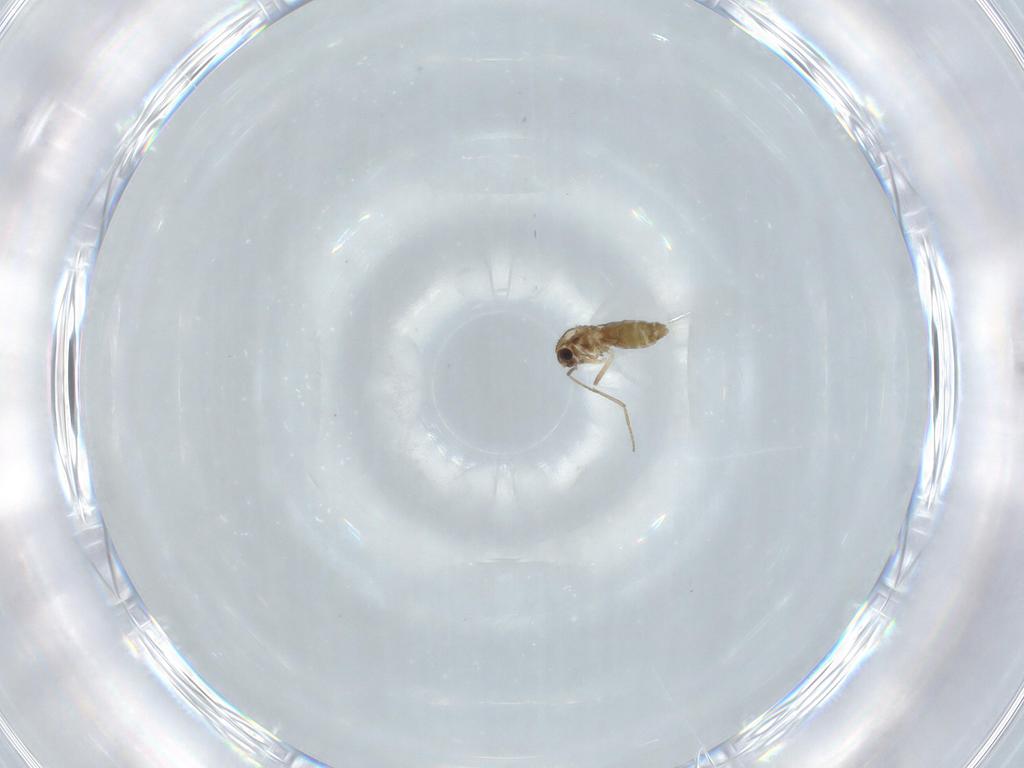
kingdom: Animalia
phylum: Arthropoda
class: Insecta
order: Diptera
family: Chironomidae
